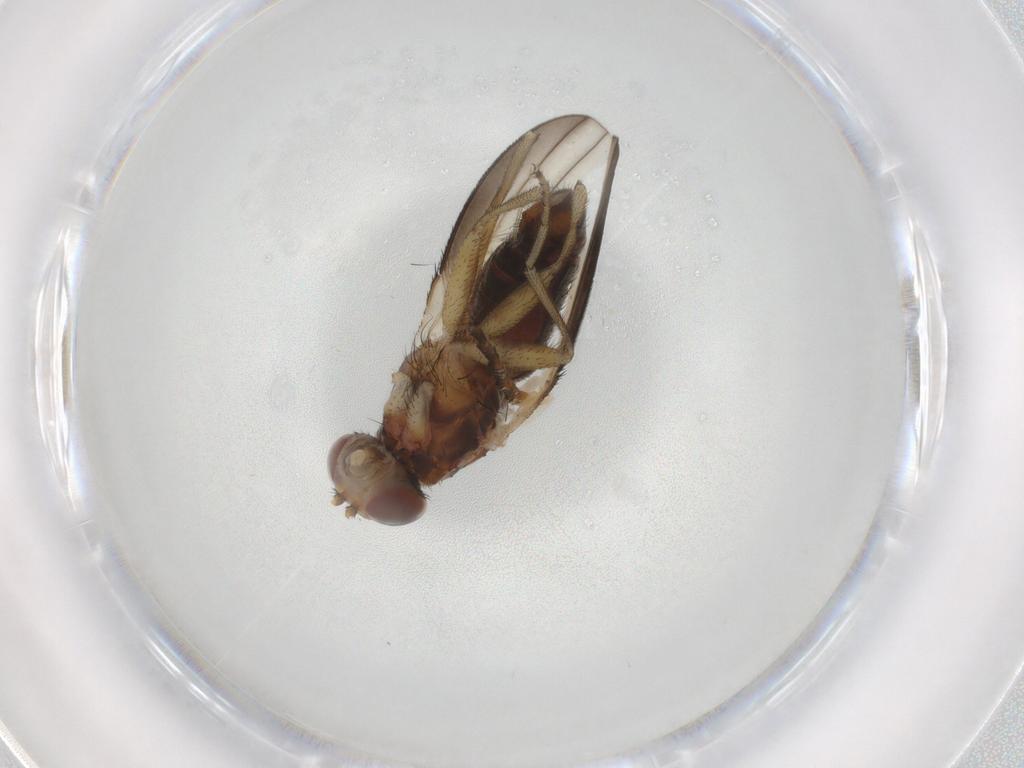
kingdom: Animalia
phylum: Arthropoda
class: Insecta
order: Diptera
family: Heleomyzidae
